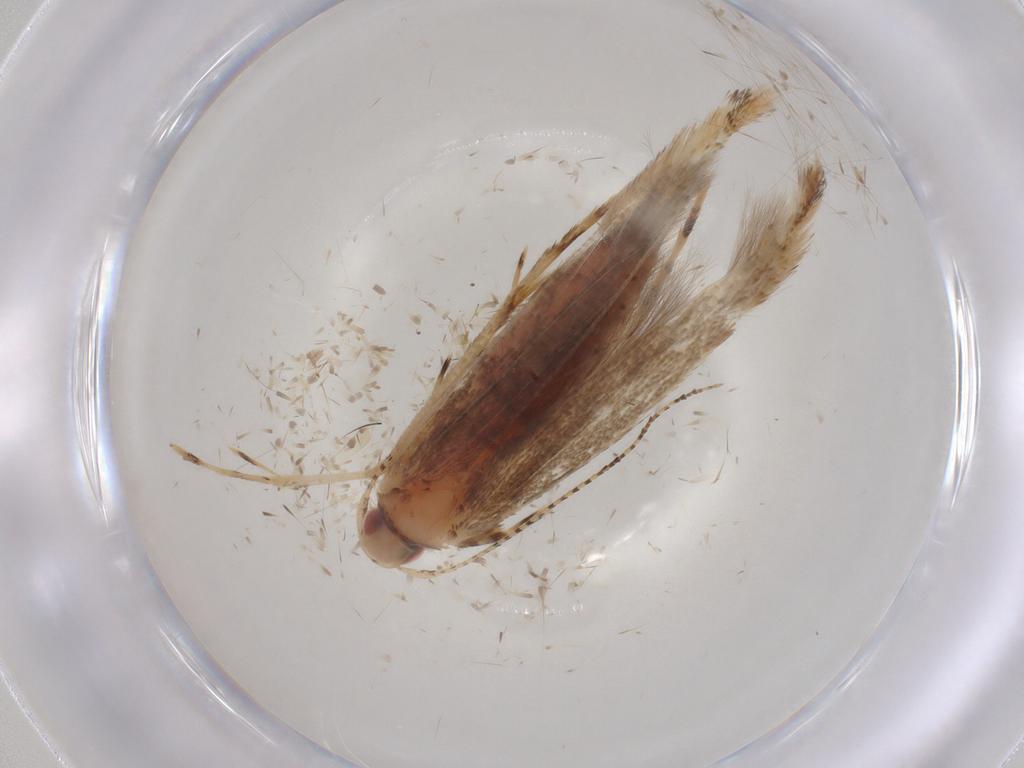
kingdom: Animalia
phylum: Arthropoda
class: Insecta
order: Lepidoptera
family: Cosmopterigidae
